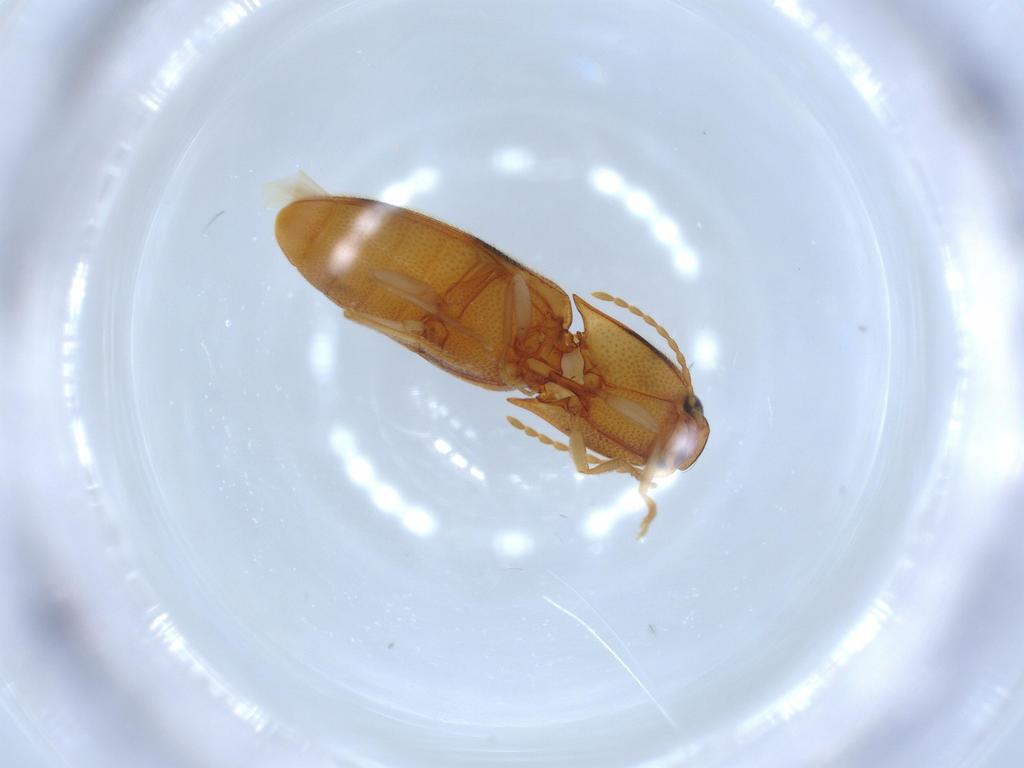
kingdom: Animalia
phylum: Arthropoda
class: Insecta
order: Coleoptera
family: Elateridae
